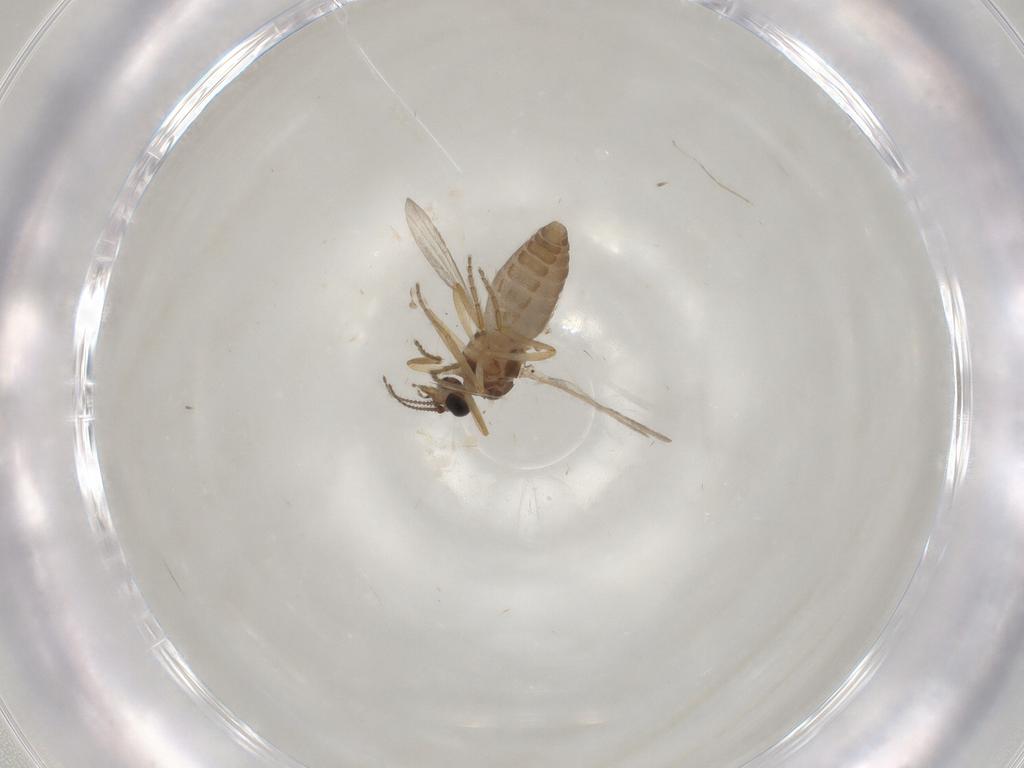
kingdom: Animalia
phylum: Arthropoda
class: Insecta
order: Diptera
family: Ceratopogonidae
